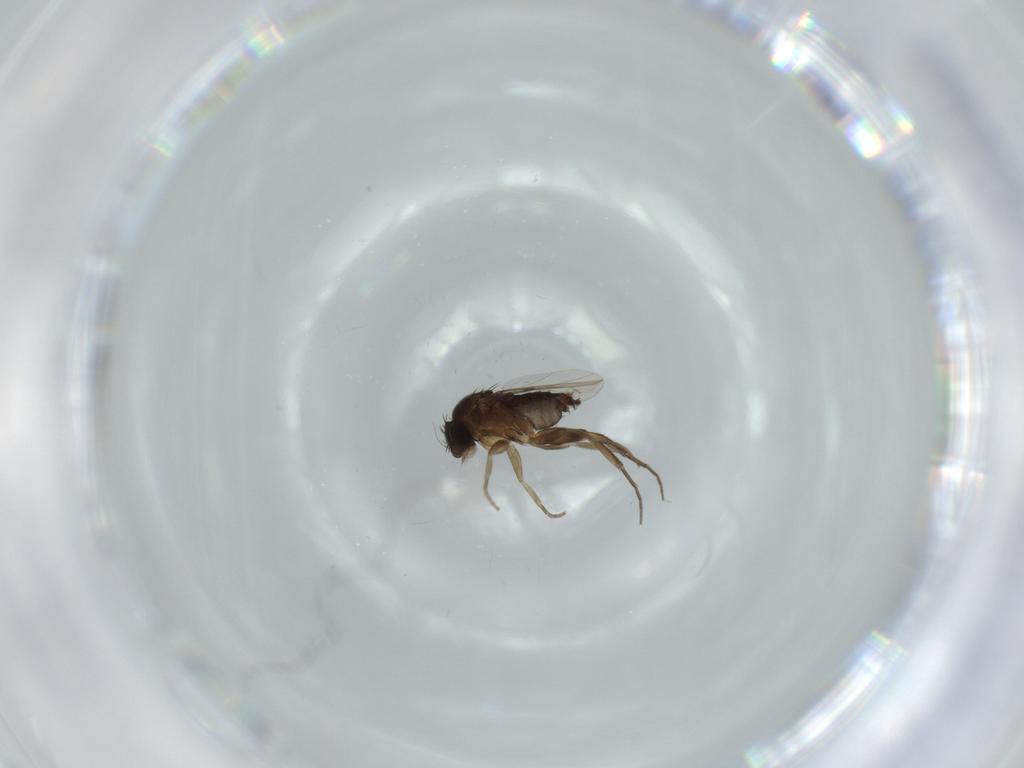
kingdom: Animalia
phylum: Arthropoda
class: Insecta
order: Diptera
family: Phoridae
